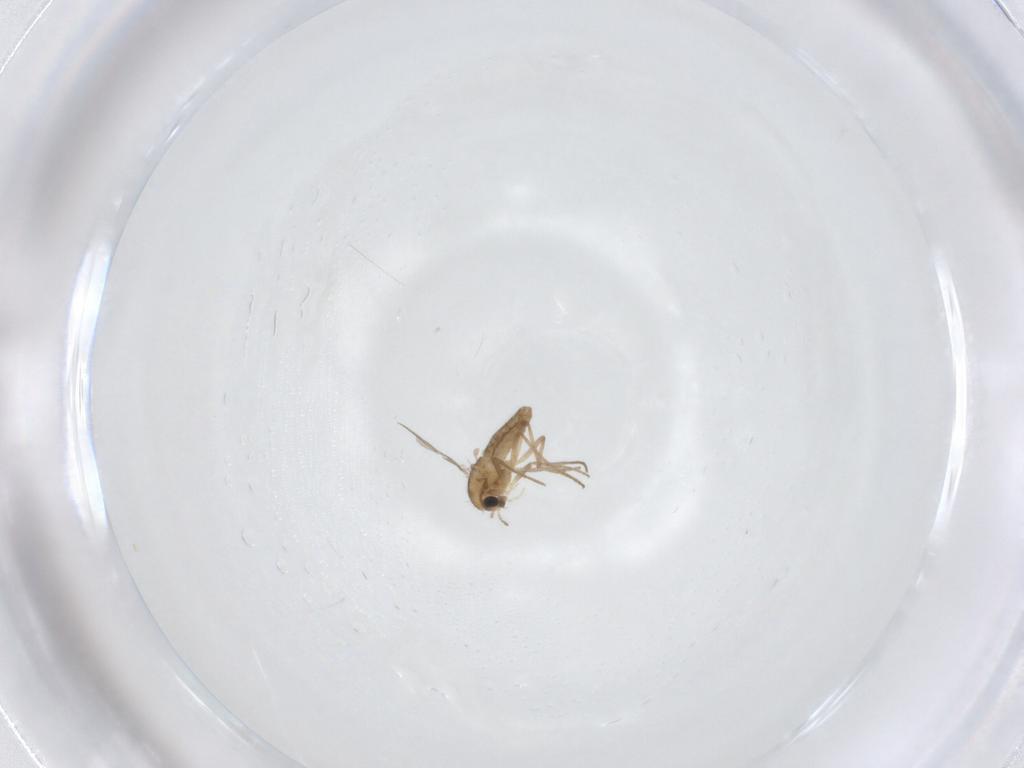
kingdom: Animalia
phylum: Arthropoda
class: Insecta
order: Diptera
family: Chironomidae
